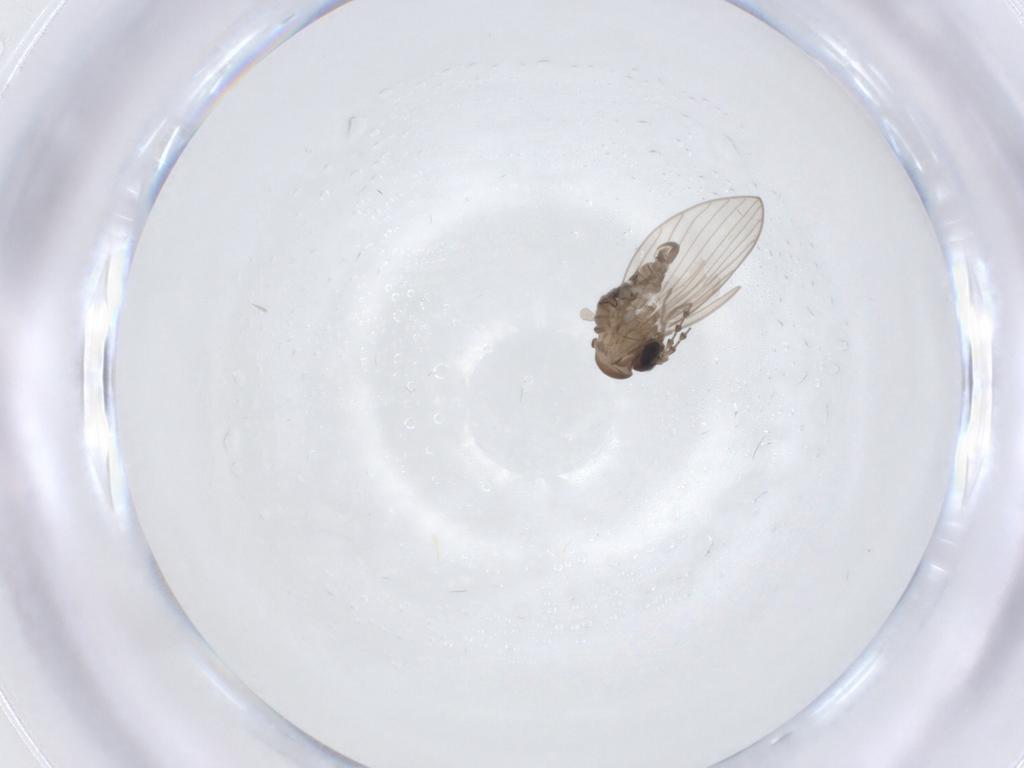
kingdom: Animalia
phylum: Arthropoda
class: Insecta
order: Diptera
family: Psychodidae
